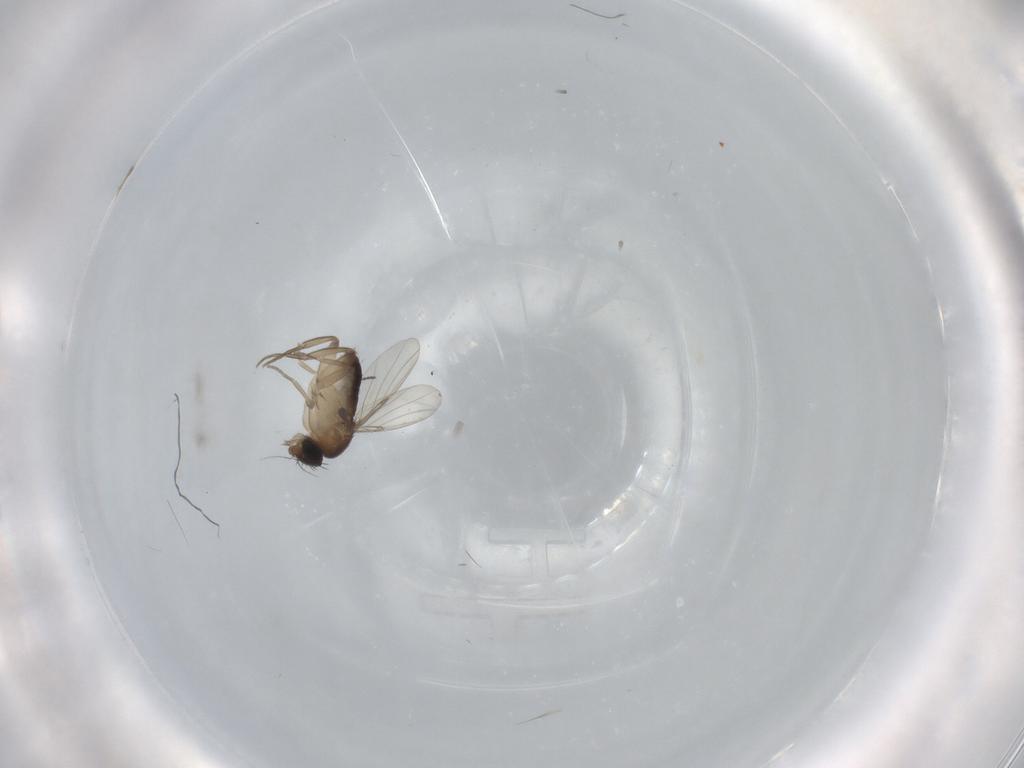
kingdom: Animalia
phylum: Arthropoda
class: Insecta
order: Diptera
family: Phoridae
